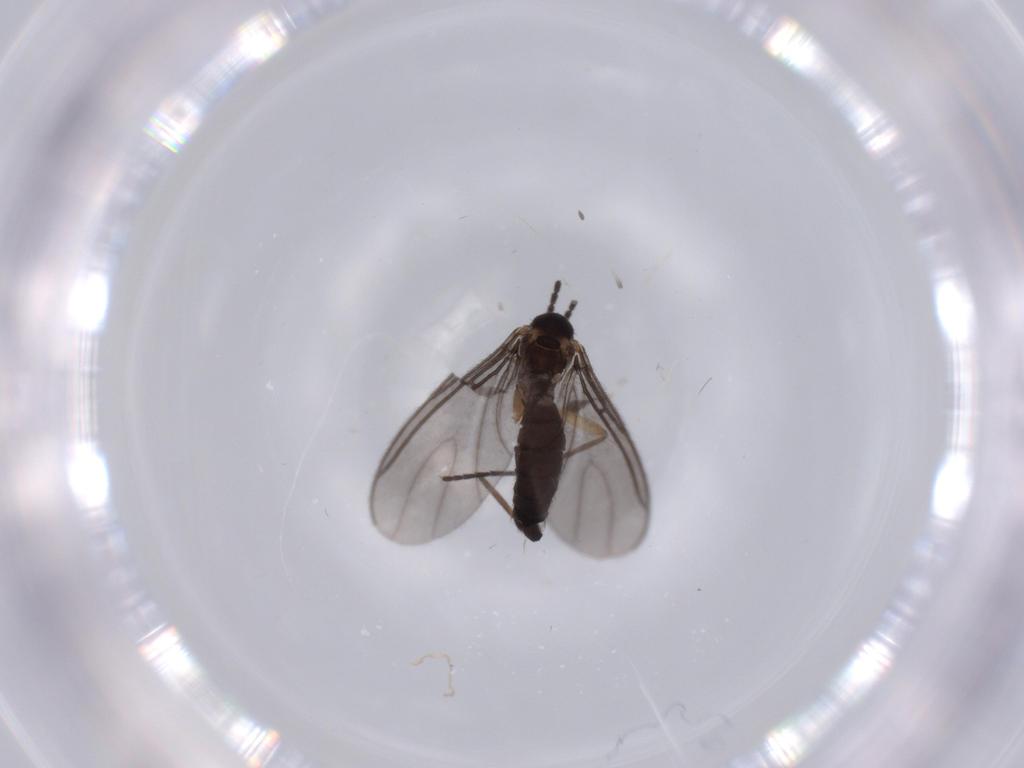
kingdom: Animalia
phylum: Arthropoda
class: Insecta
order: Diptera
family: Sciaridae
